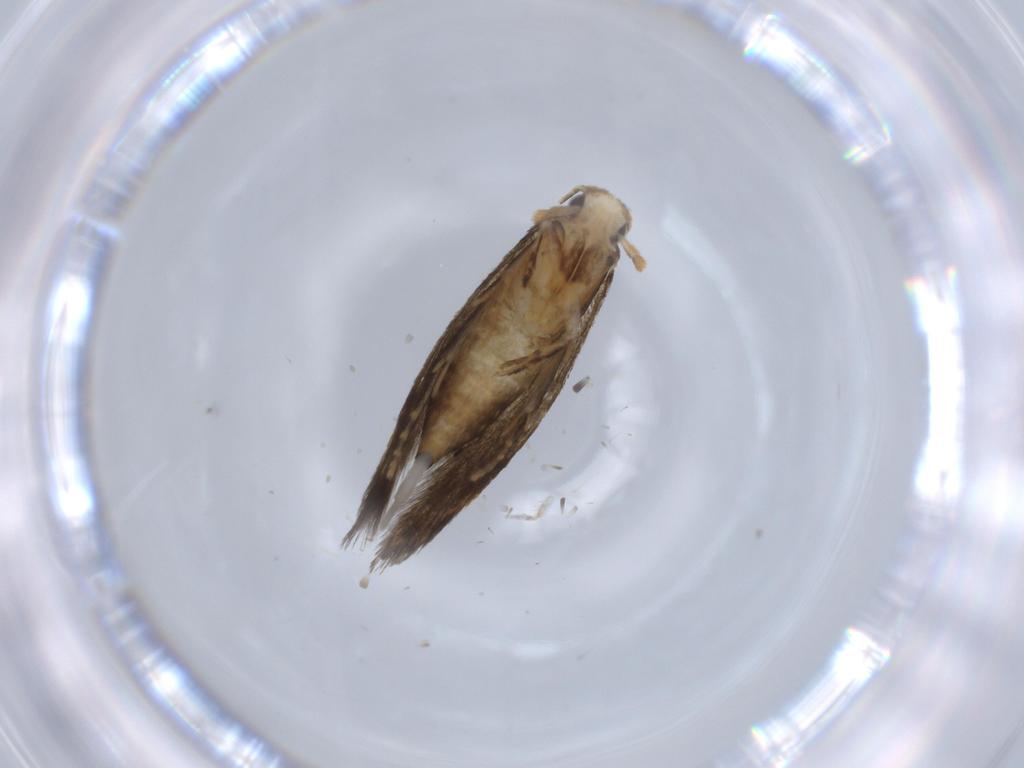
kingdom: Animalia
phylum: Arthropoda
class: Insecta
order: Lepidoptera
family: Tineidae
